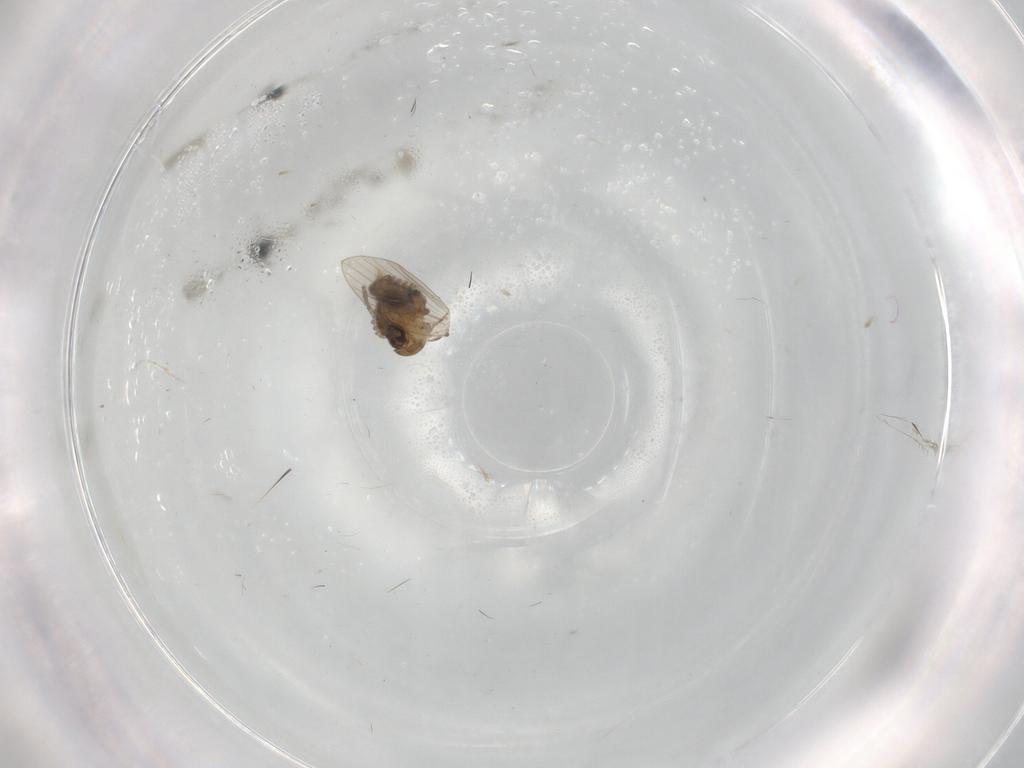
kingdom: Animalia
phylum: Arthropoda
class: Insecta
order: Diptera
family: Psychodidae
